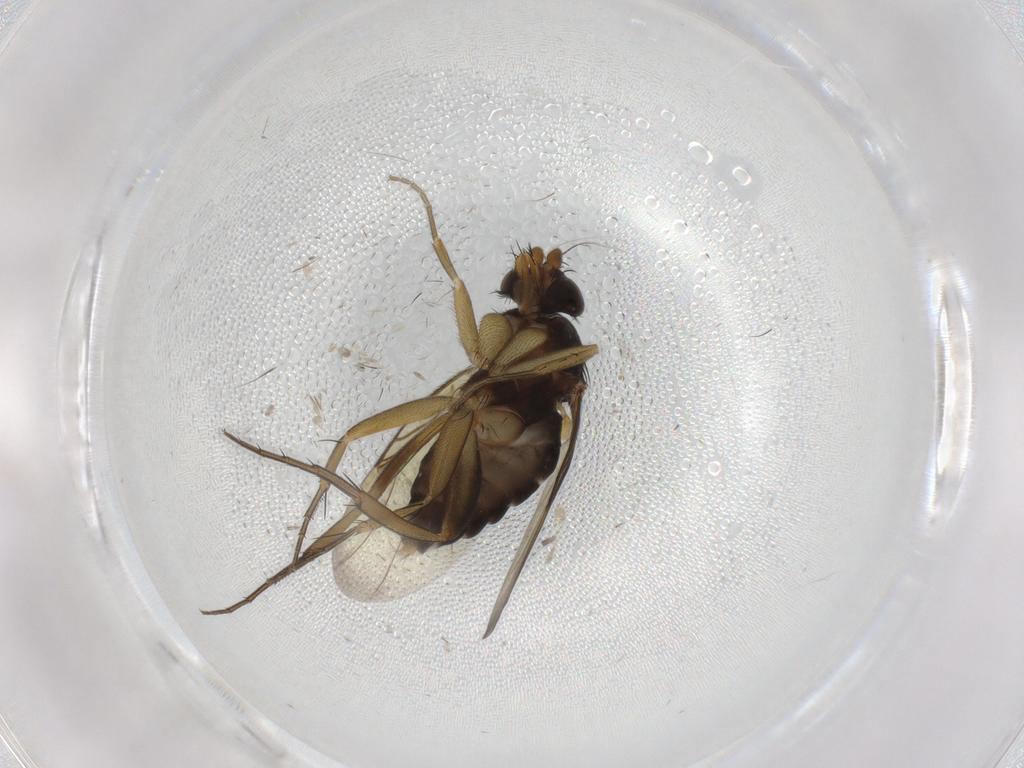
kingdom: Animalia
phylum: Arthropoda
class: Insecta
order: Diptera
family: Phoridae
